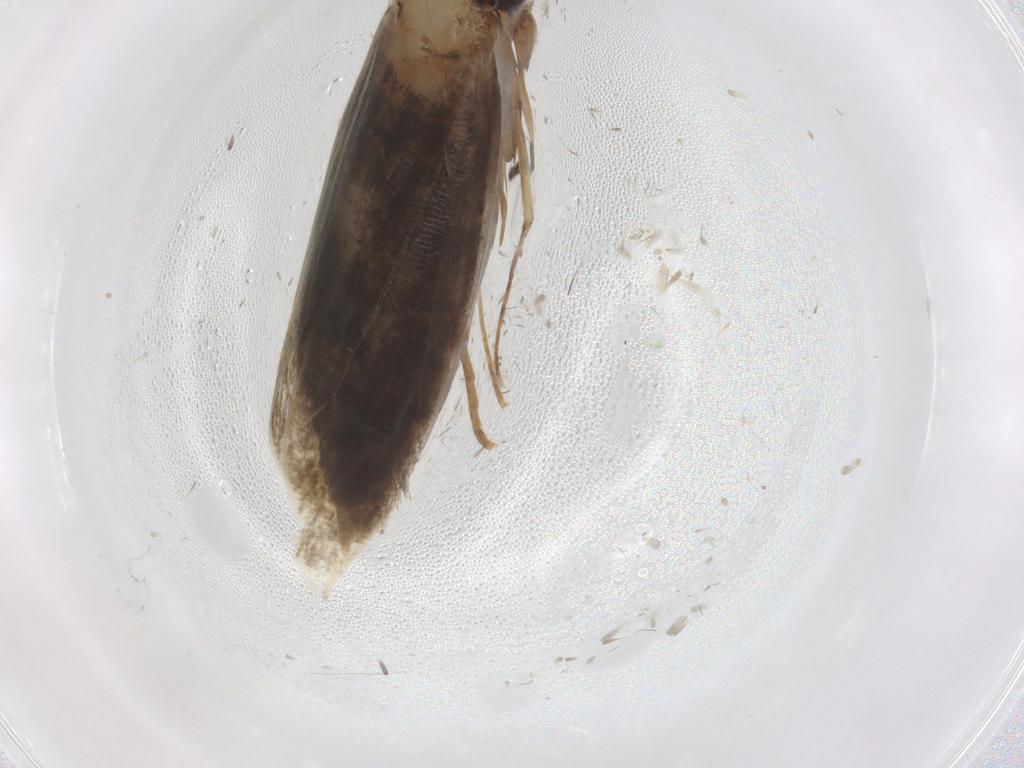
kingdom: Animalia
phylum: Arthropoda
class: Insecta
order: Lepidoptera
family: Tineidae
